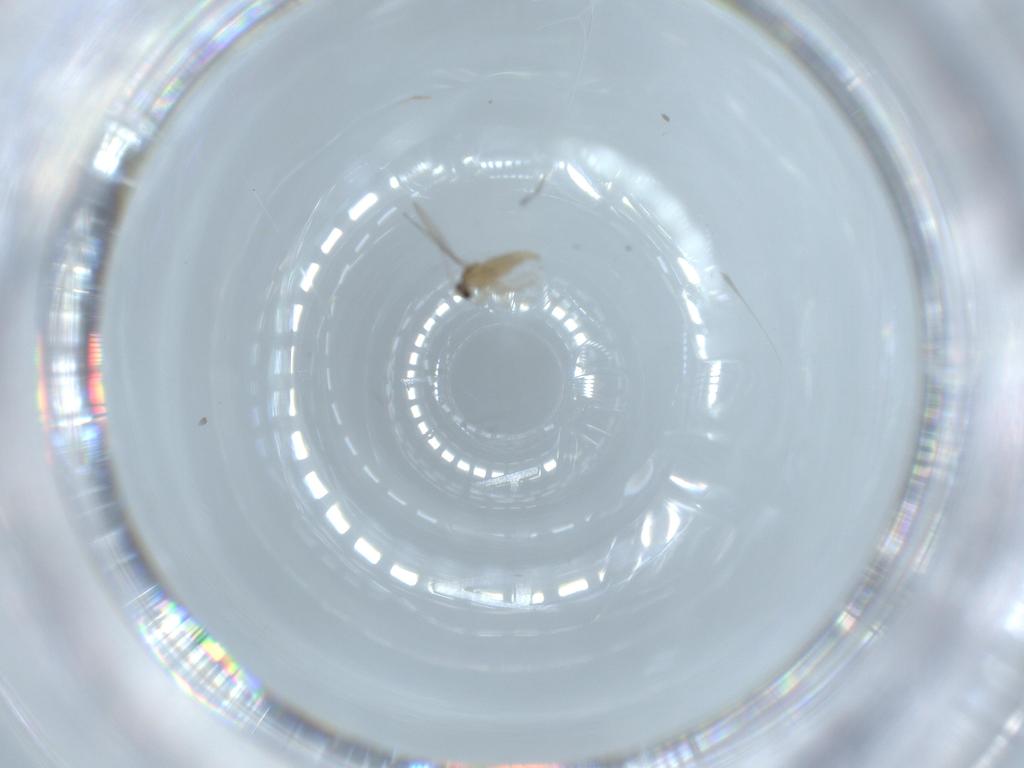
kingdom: Animalia
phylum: Arthropoda
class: Insecta
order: Diptera
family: Cecidomyiidae
